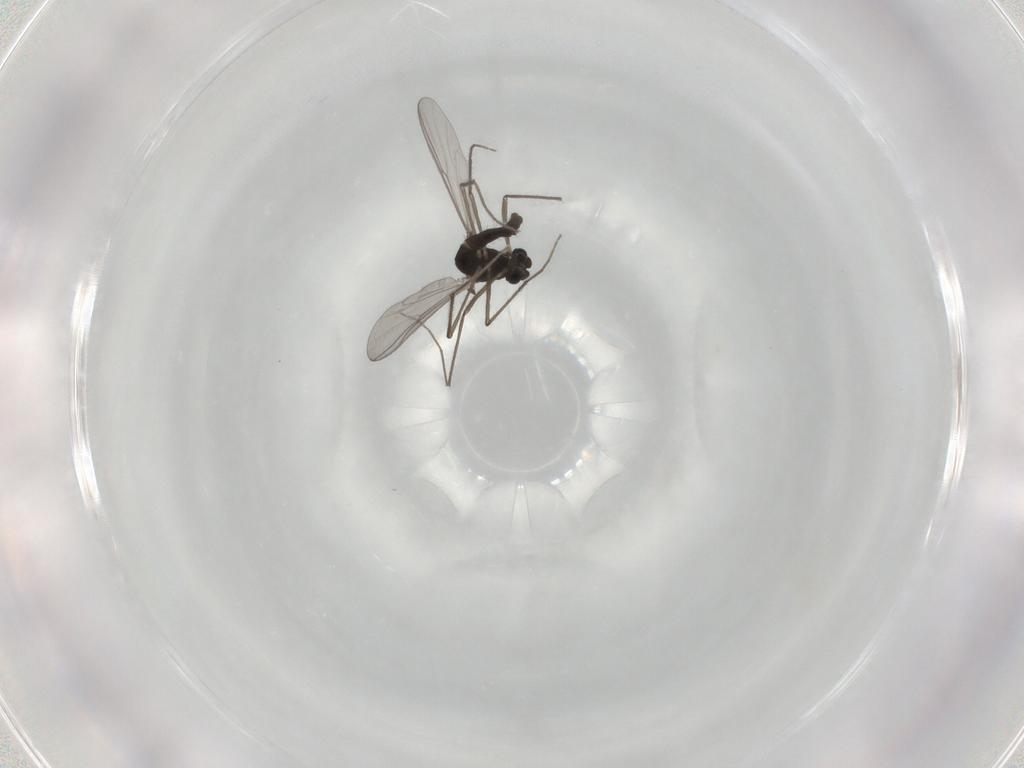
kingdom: Animalia
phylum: Arthropoda
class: Insecta
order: Diptera
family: Chironomidae
